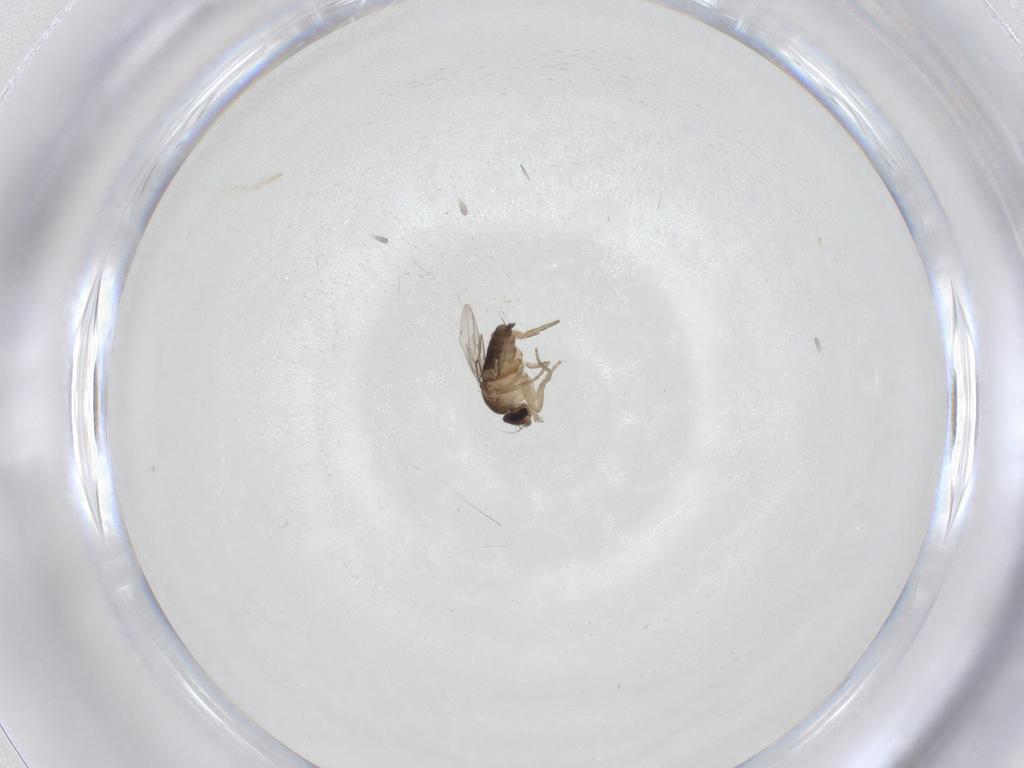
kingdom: Animalia
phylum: Arthropoda
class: Insecta
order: Diptera
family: Phoridae
